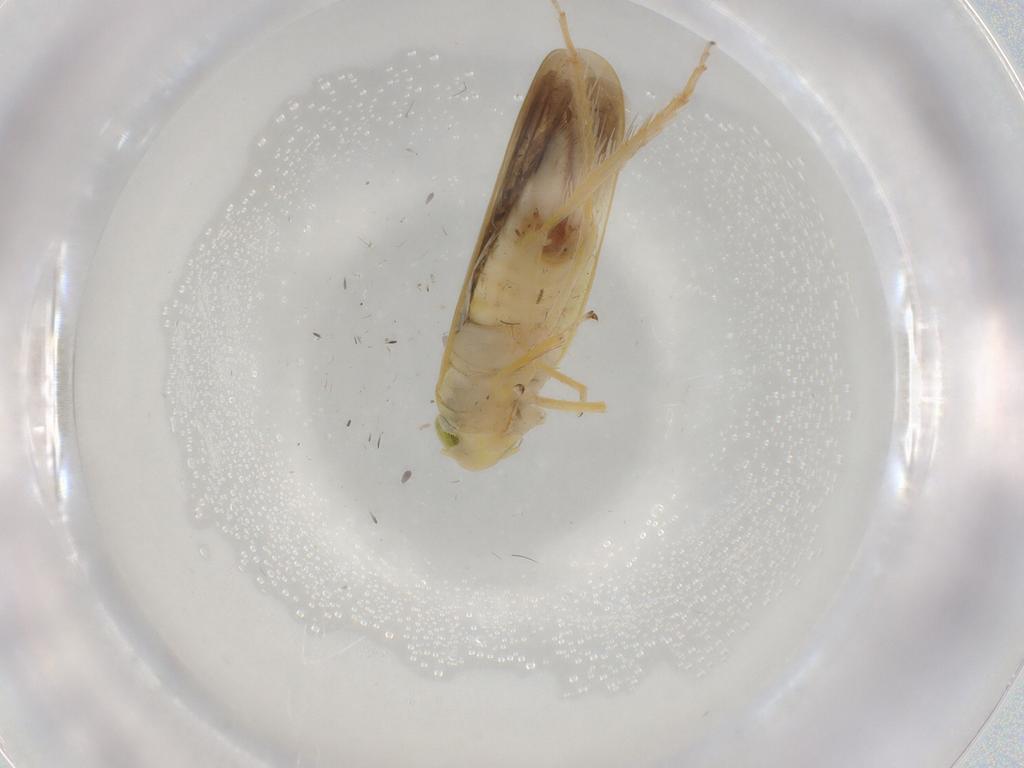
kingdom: Animalia
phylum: Arthropoda
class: Insecta
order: Hemiptera
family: Cicadellidae
